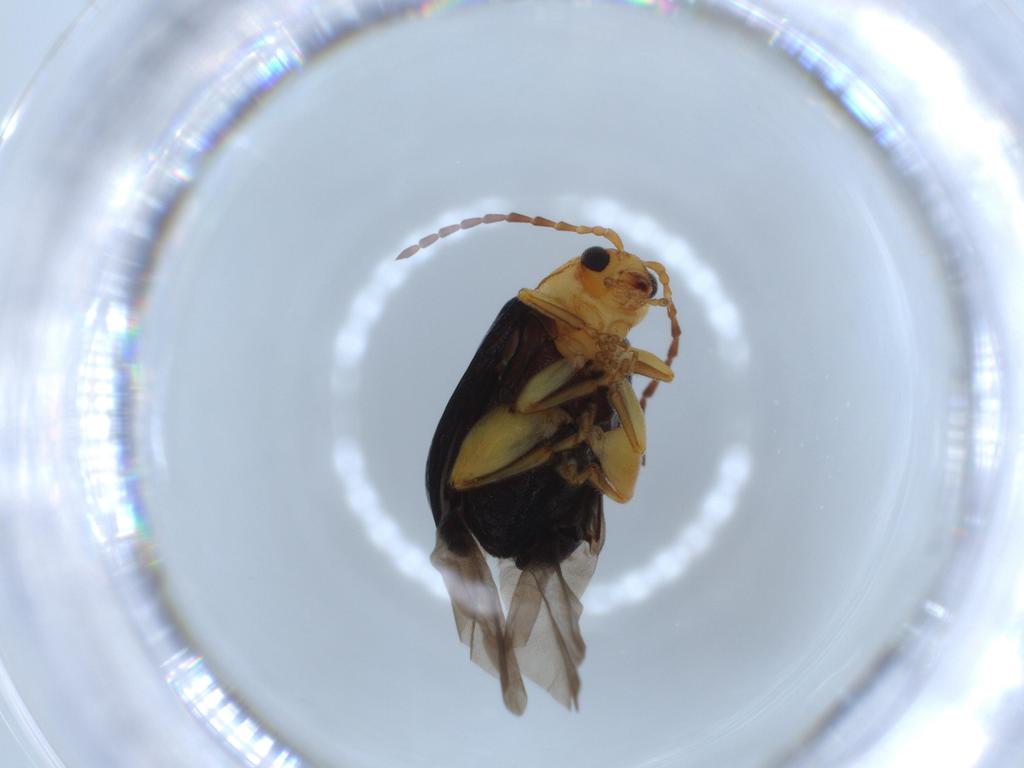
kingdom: Animalia
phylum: Arthropoda
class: Insecta
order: Coleoptera
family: Chrysomelidae
